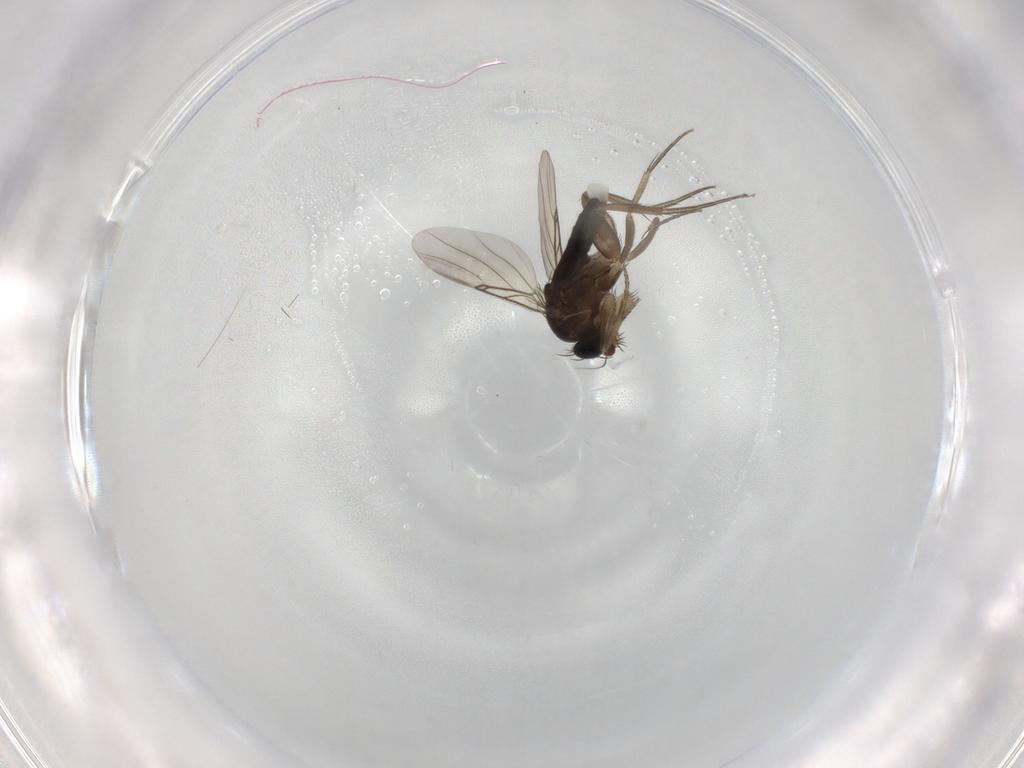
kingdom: Animalia
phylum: Arthropoda
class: Insecta
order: Diptera
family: Phoridae
